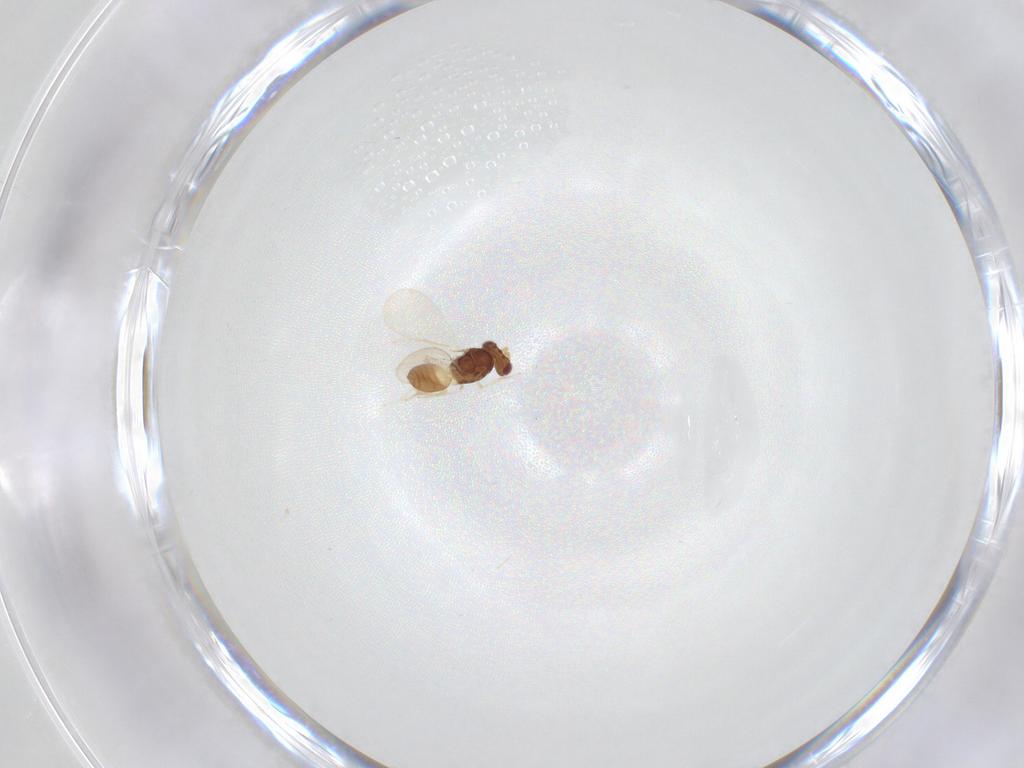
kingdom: Animalia
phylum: Arthropoda
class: Insecta
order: Hymenoptera
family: Eulophidae
